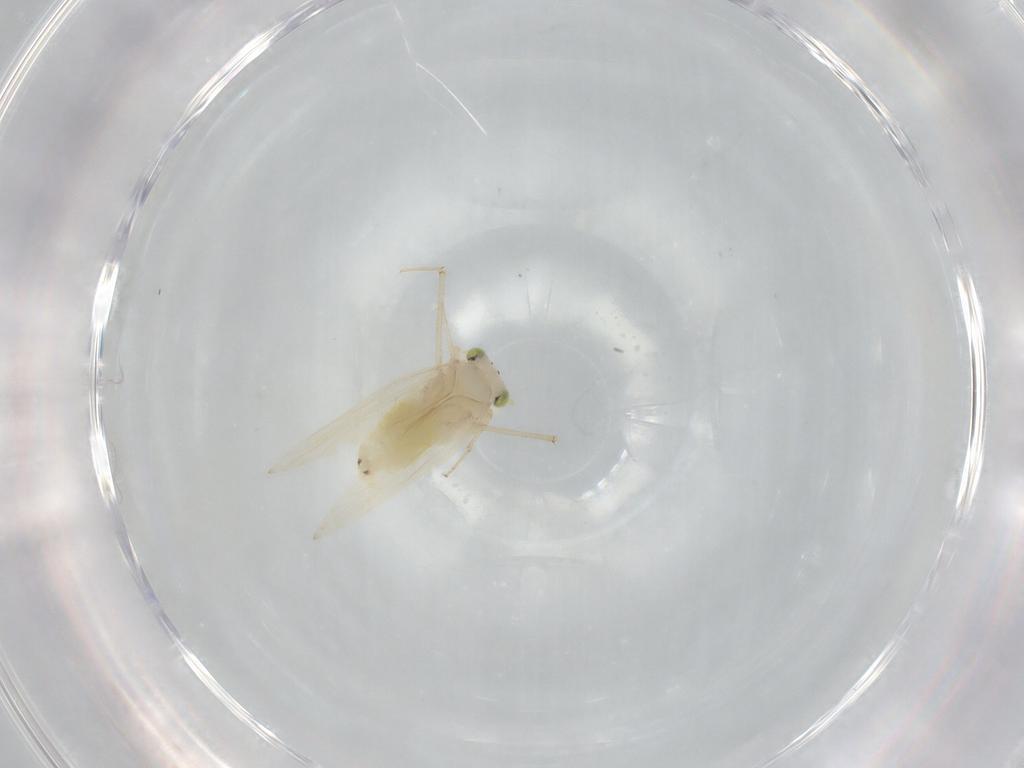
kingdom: Animalia
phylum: Arthropoda
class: Insecta
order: Psocodea
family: Lepidopsocidae
